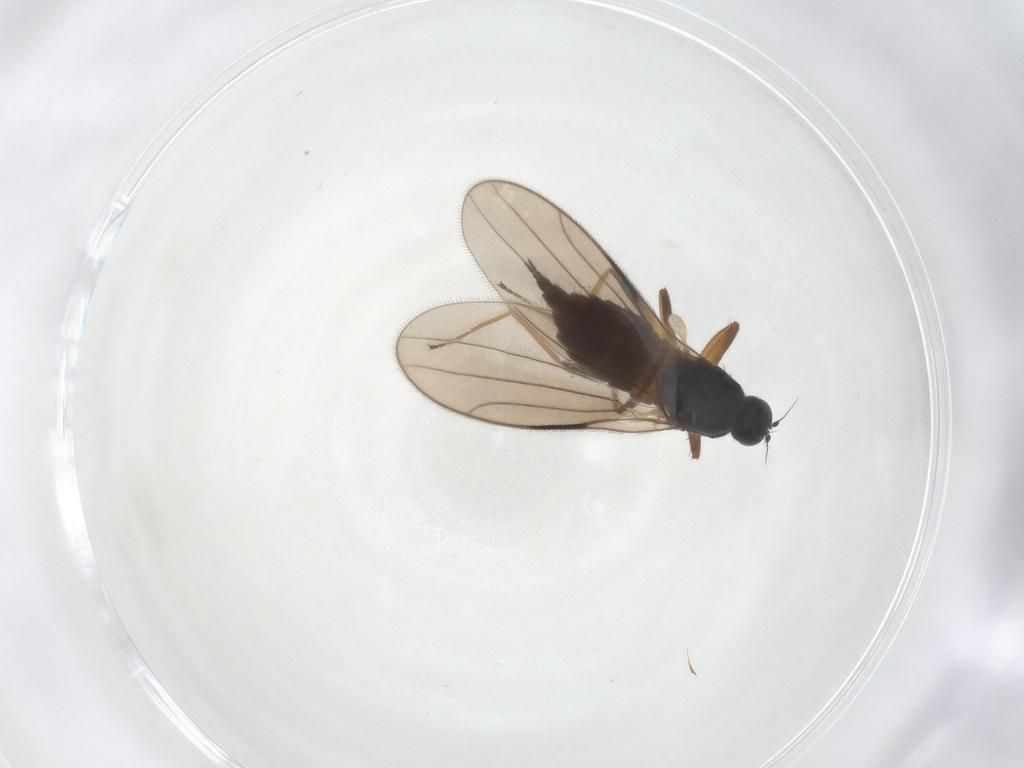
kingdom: Animalia
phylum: Arthropoda
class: Insecta
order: Diptera
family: Hybotidae
